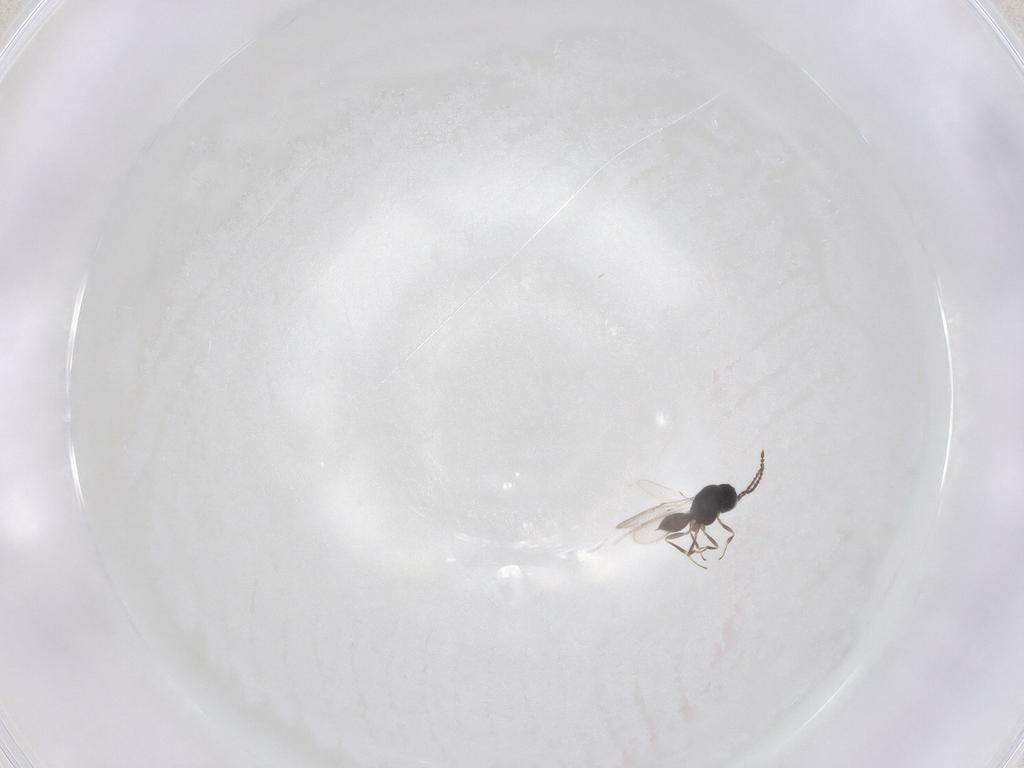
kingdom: Animalia
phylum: Arthropoda
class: Insecta
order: Hymenoptera
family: Scelionidae
